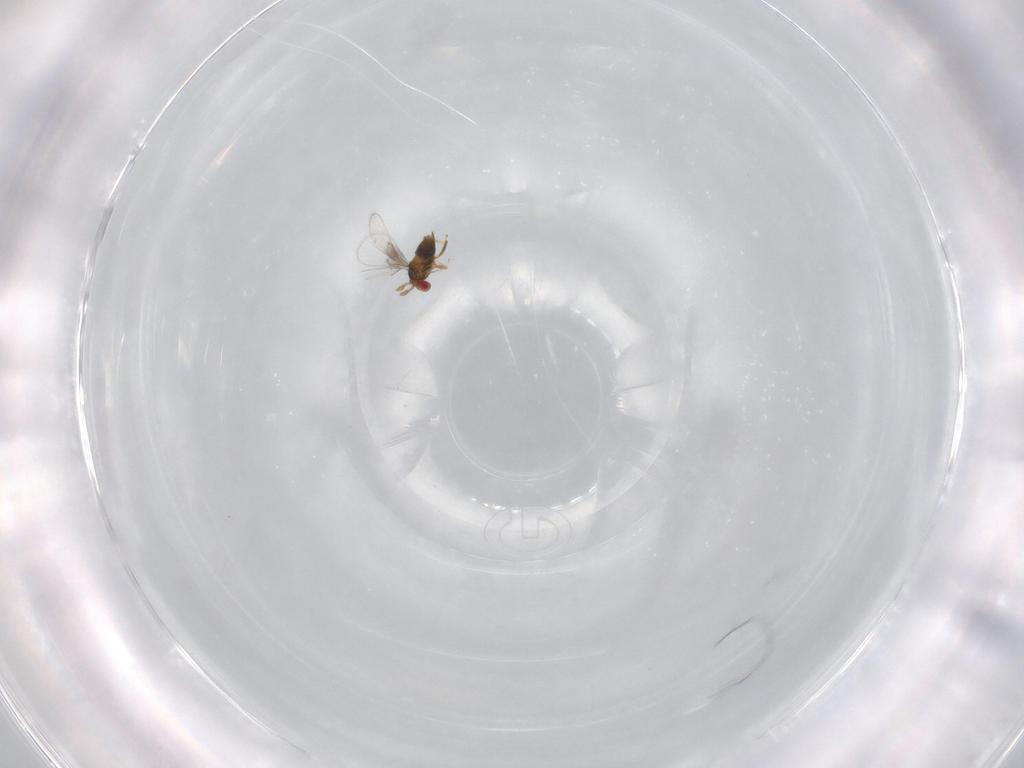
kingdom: Animalia
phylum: Arthropoda
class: Insecta
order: Hymenoptera
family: Trichogrammatidae
